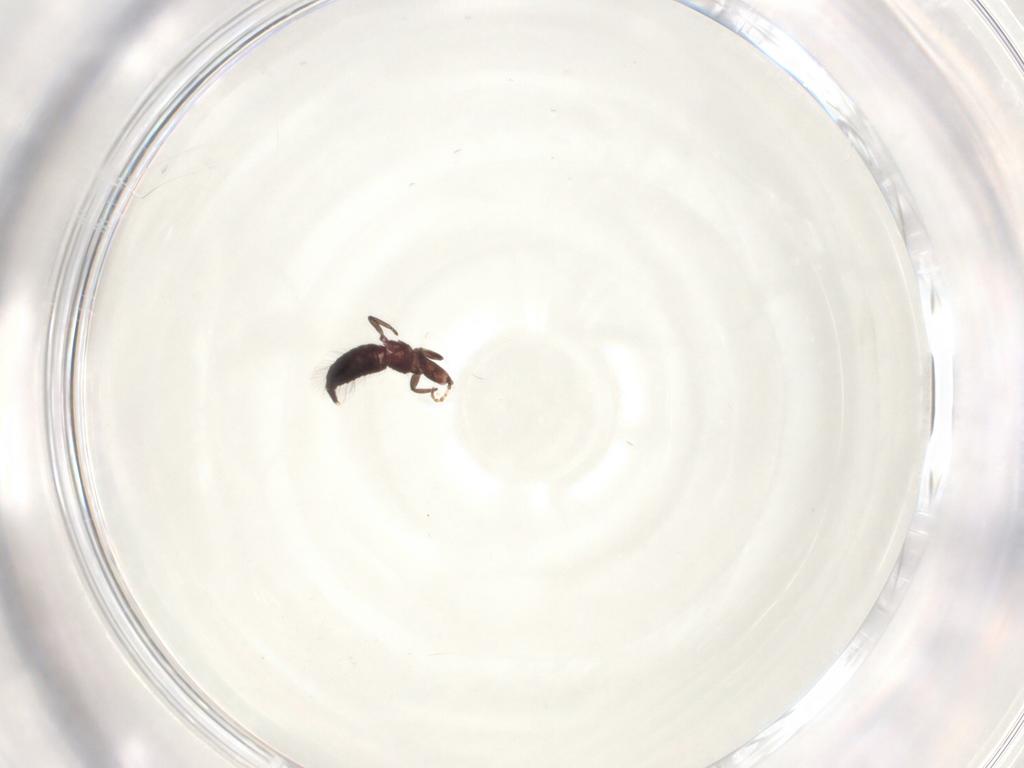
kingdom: Animalia
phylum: Arthropoda
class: Insecta
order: Thysanoptera
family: Phlaeothripidae
